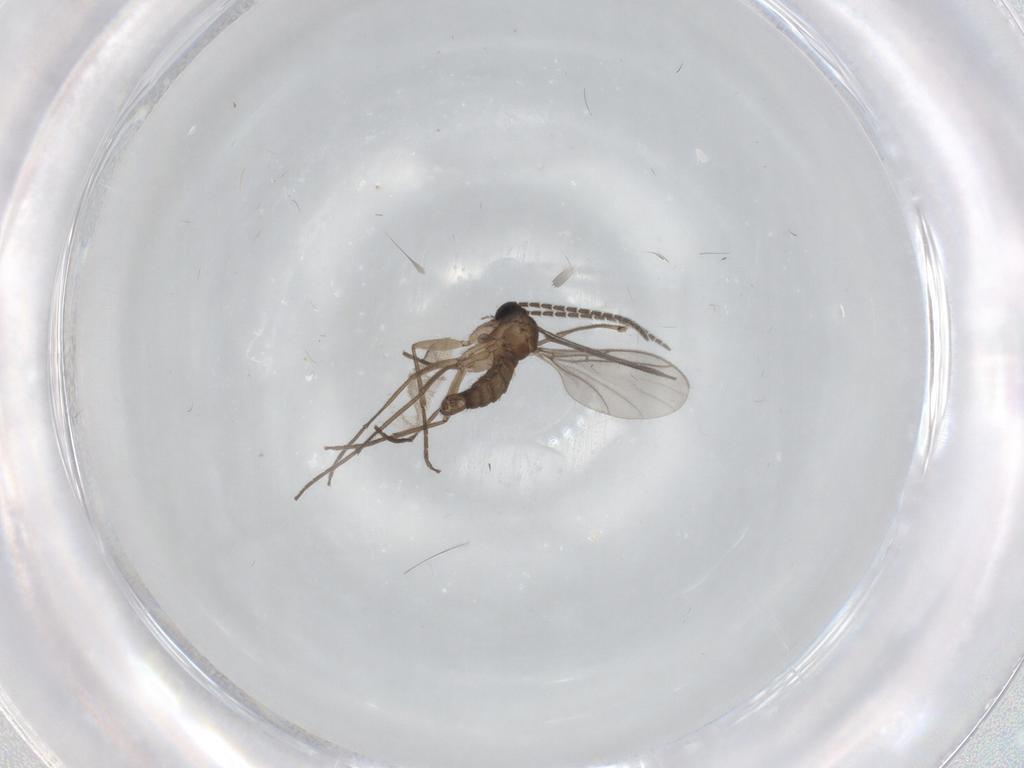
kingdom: Animalia
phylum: Arthropoda
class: Insecta
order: Diptera
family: Sciaridae
